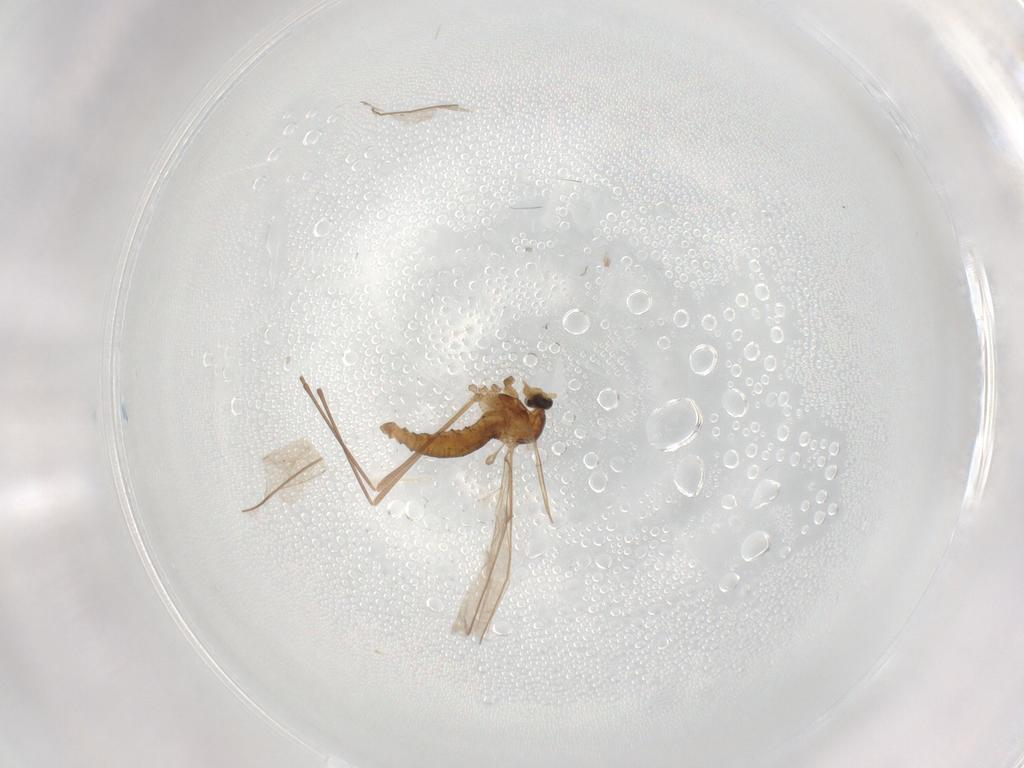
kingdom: Animalia
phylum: Arthropoda
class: Insecta
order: Diptera
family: Cecidomyiidae
